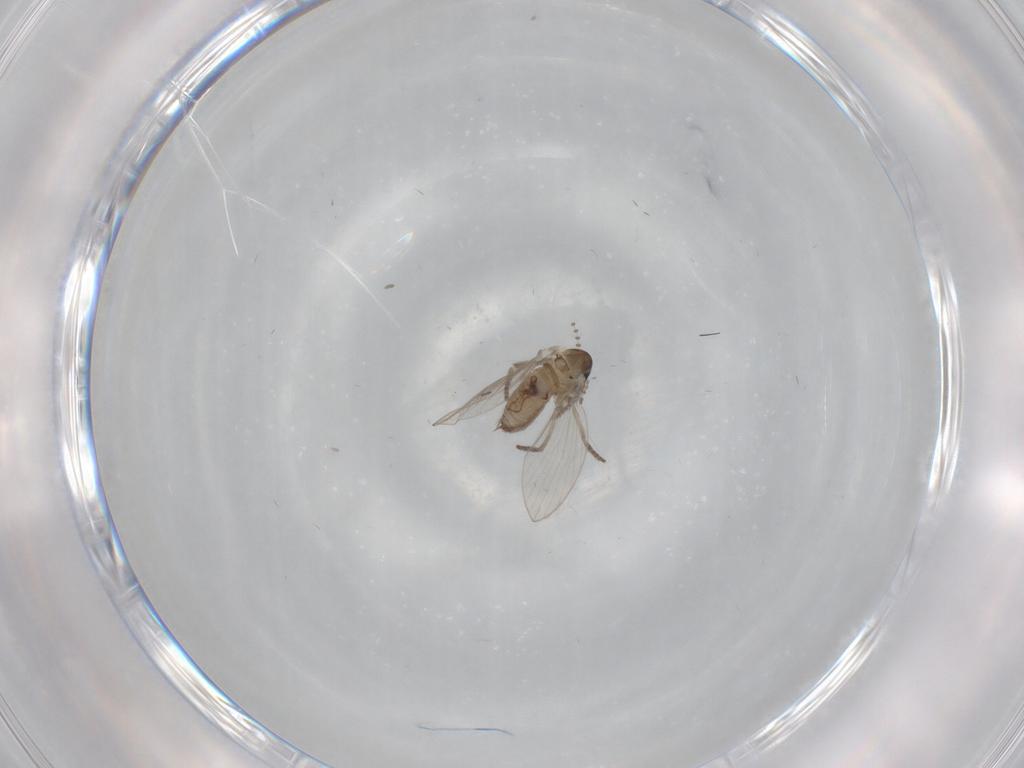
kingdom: Animalia
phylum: Arthropoda
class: Insecta
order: Diptera
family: Psychodidae
